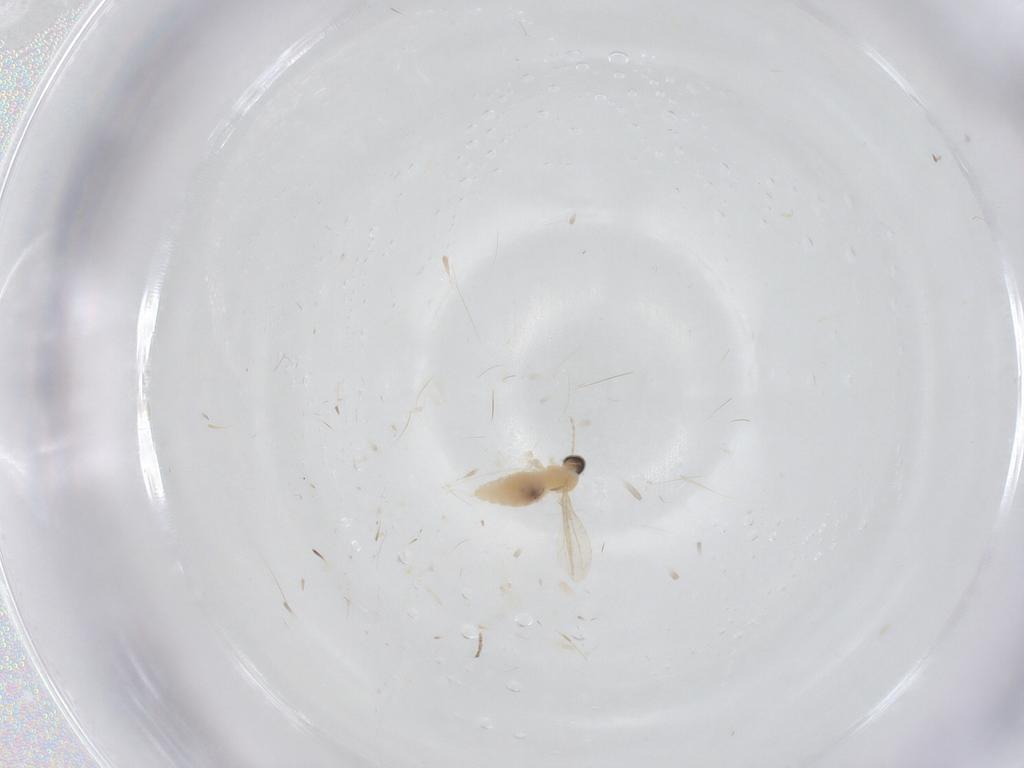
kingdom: Animalia
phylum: Arthropoda
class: Insecta
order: Diptera
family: Cecidomyiidae
